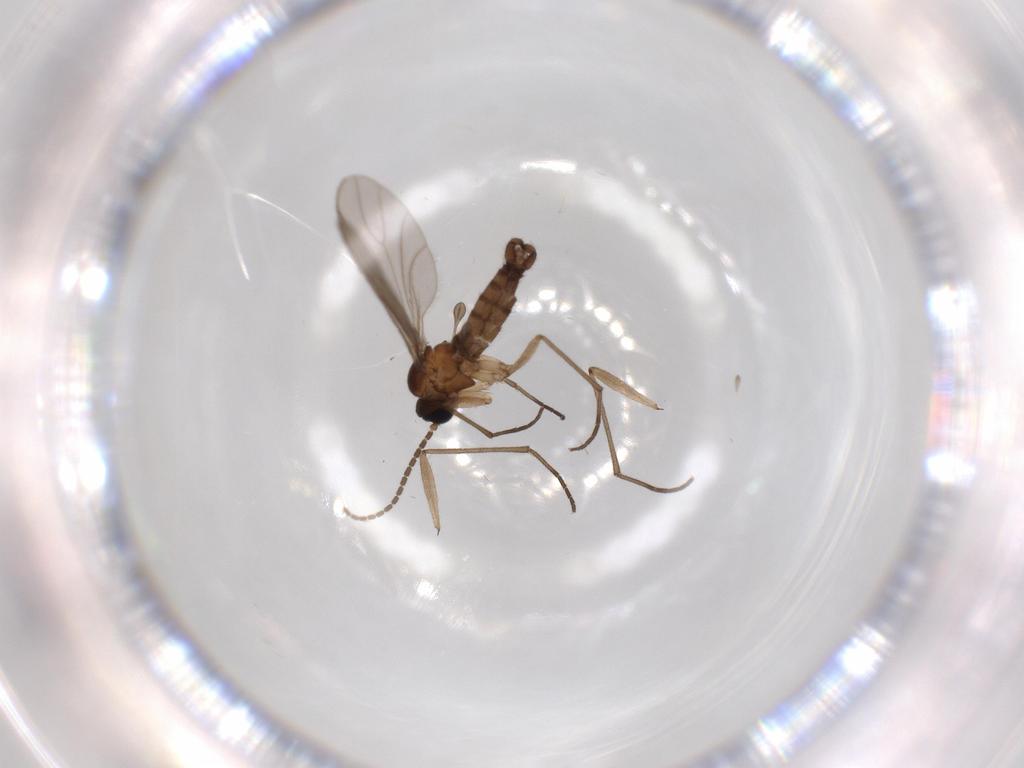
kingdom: Animalia
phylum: Arthropoda
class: Insecta
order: Diptera
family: Sciaridae
